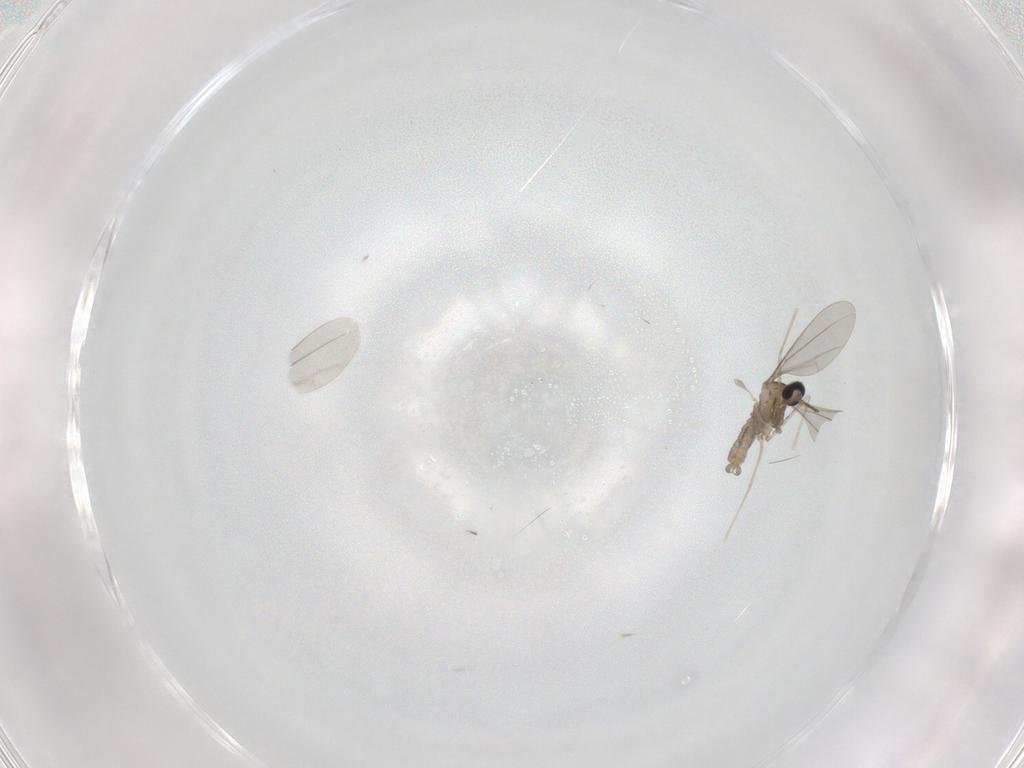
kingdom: Animalia
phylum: Arthropoda
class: Insecta
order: Diptera
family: Cecidomyiidae
